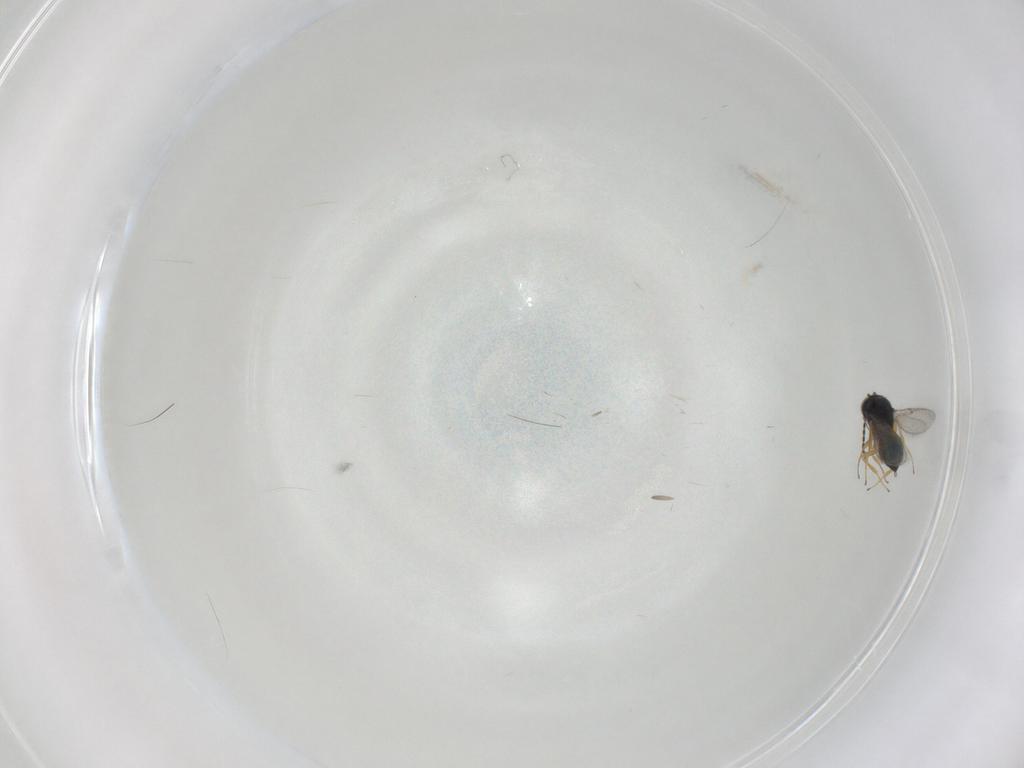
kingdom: Animalia
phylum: Arthropoda
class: Insecta
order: Hymenoptera
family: Scelionidae
